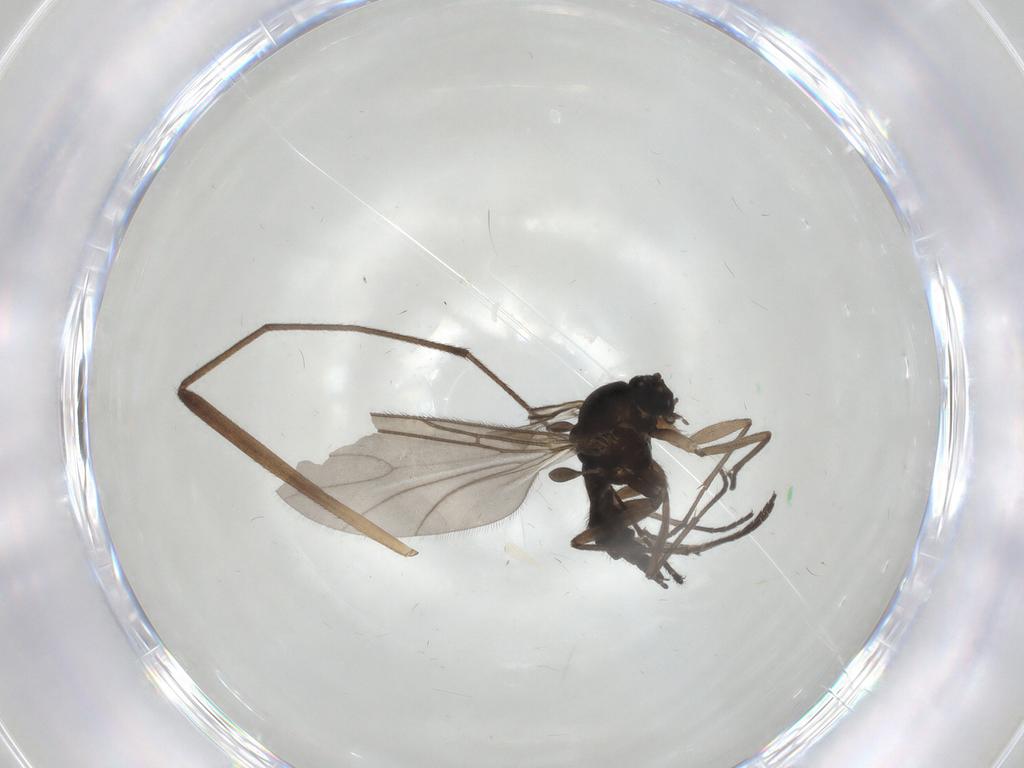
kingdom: Animalia
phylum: Arthropoda
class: Insecta
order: Diptera
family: Sciaridae
